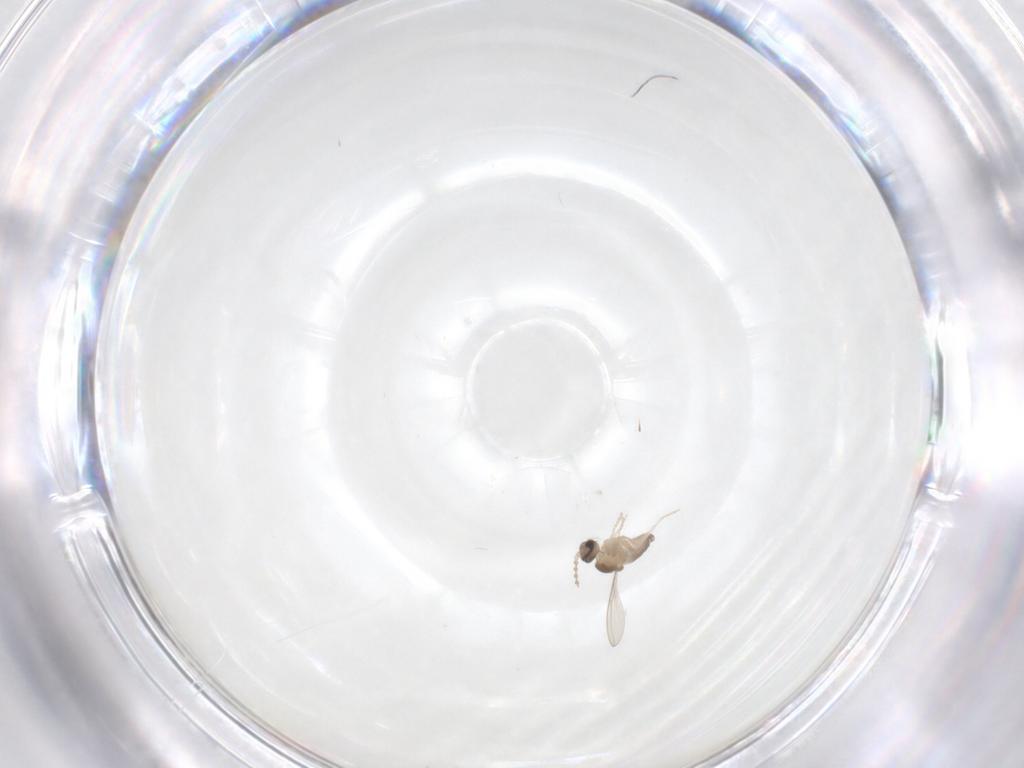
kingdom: Animalia
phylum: Arthropoda
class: Insecta
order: Diptera
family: Cecidomyiidae
